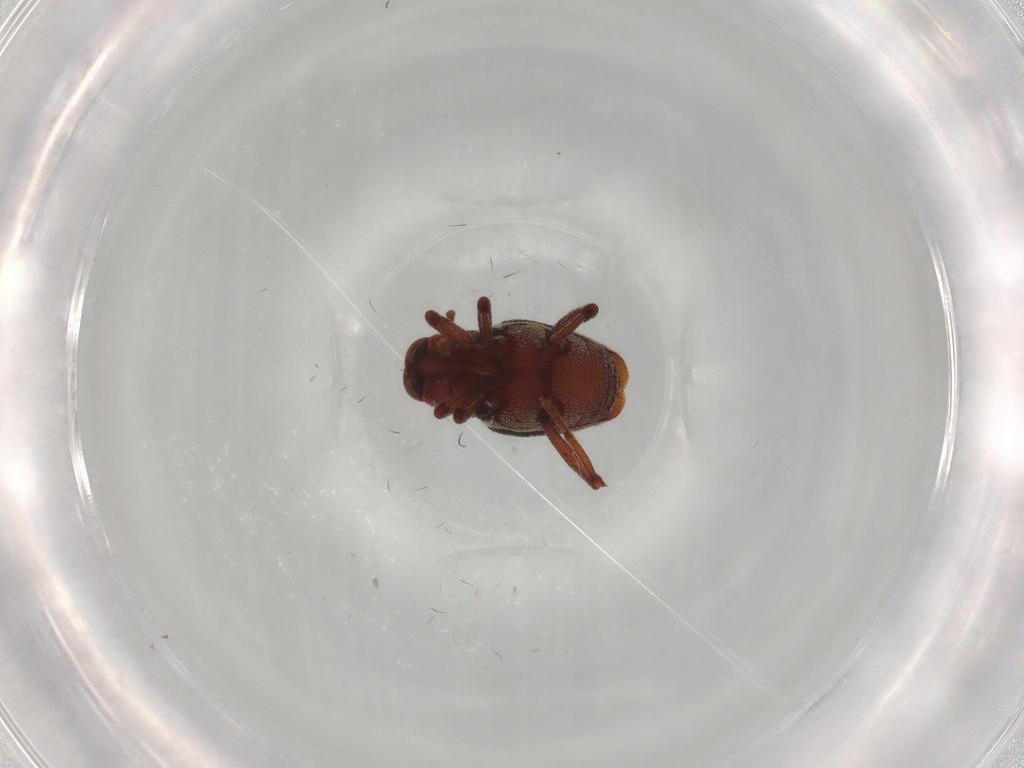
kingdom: Animalia
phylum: Arthropoda
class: Insecta
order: Coleoptera
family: Curculionidae
